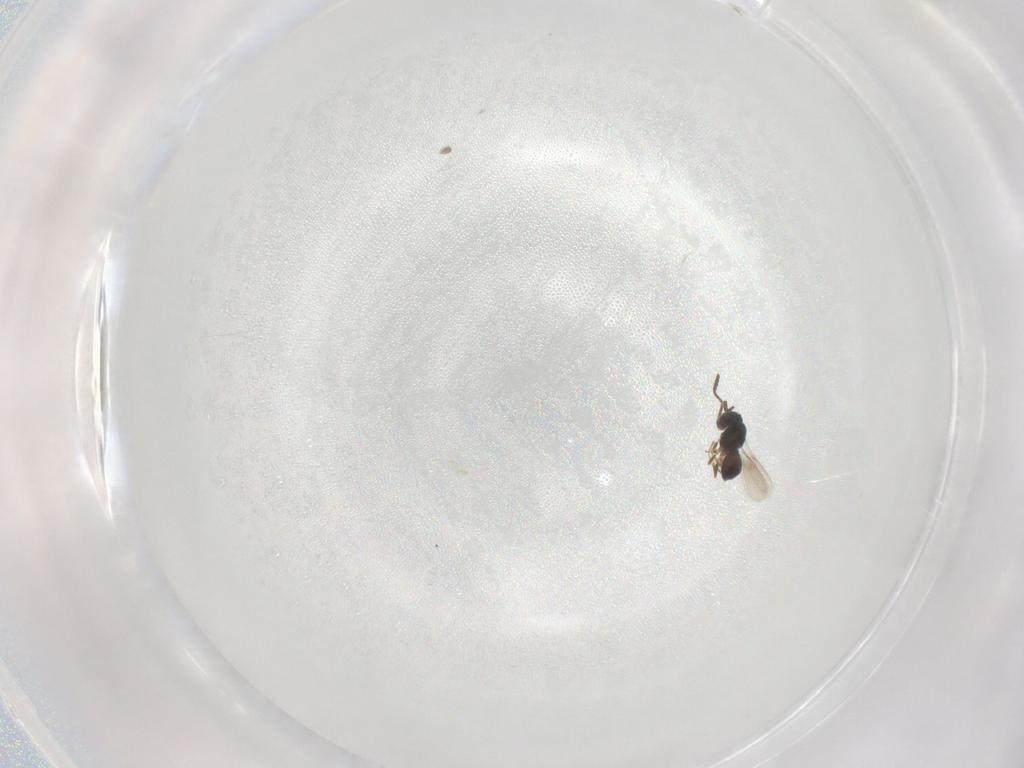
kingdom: Animalia
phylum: Arthropoda
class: Insecta
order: Hymenoptera
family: Scelionidae
